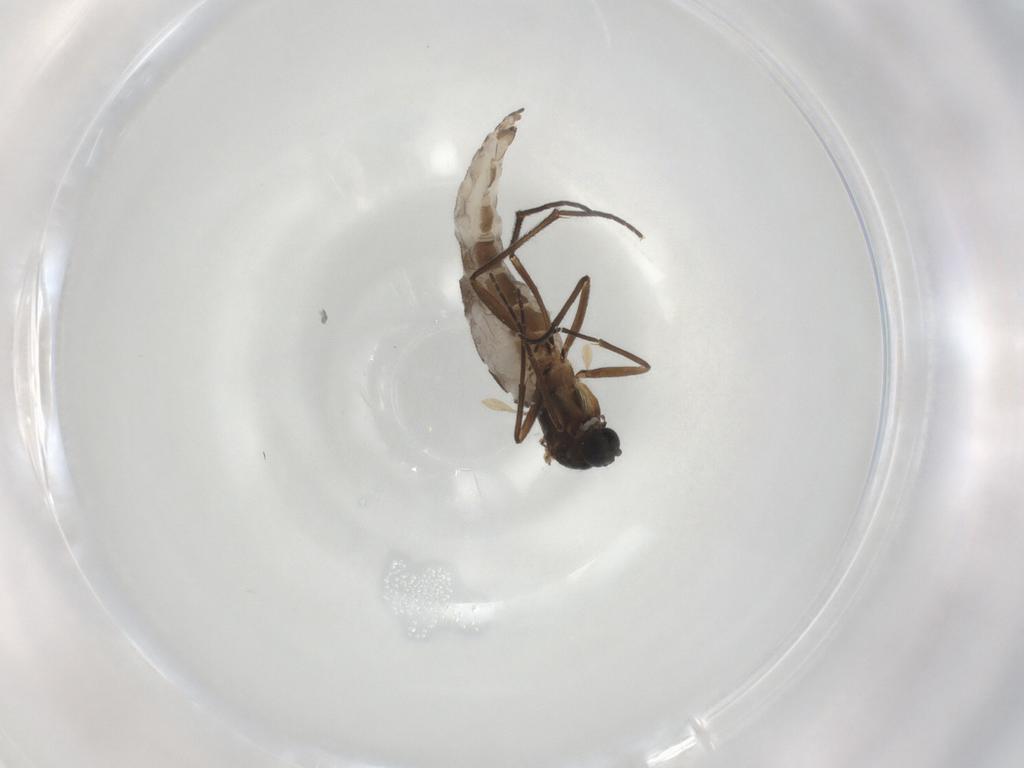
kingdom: Animalia
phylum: Arthropoda
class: Insecta
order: Diptera
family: Sciaridae
